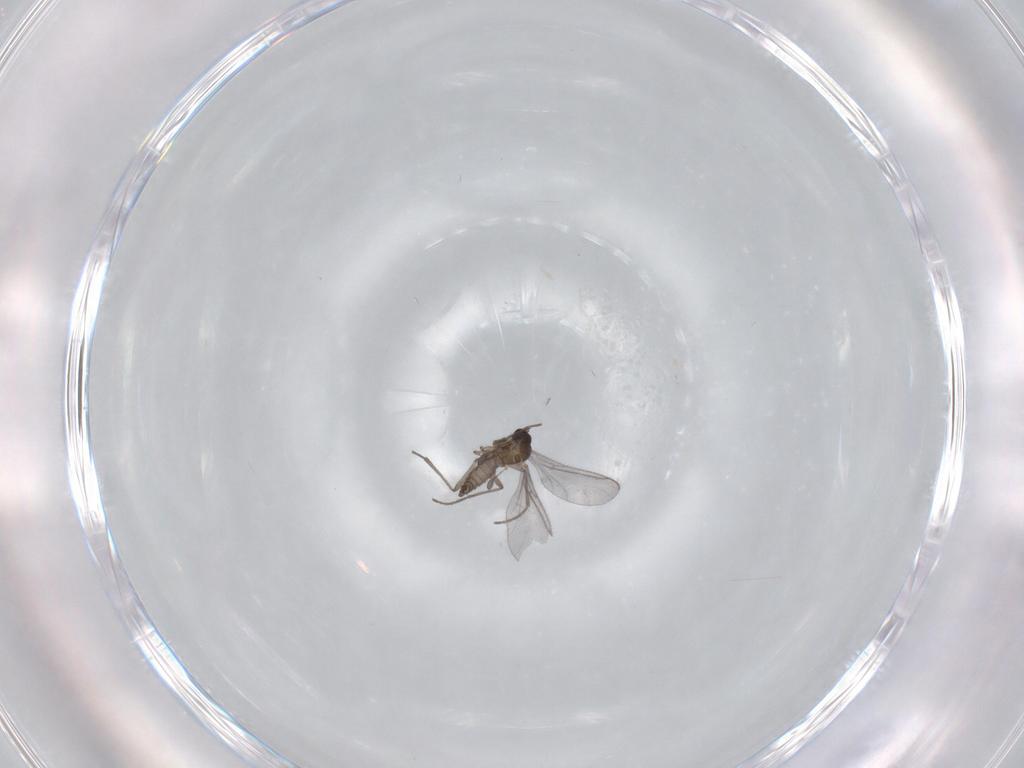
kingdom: Animalia
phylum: Arthropoda
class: Insecta
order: Diptera
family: Sciaridae
